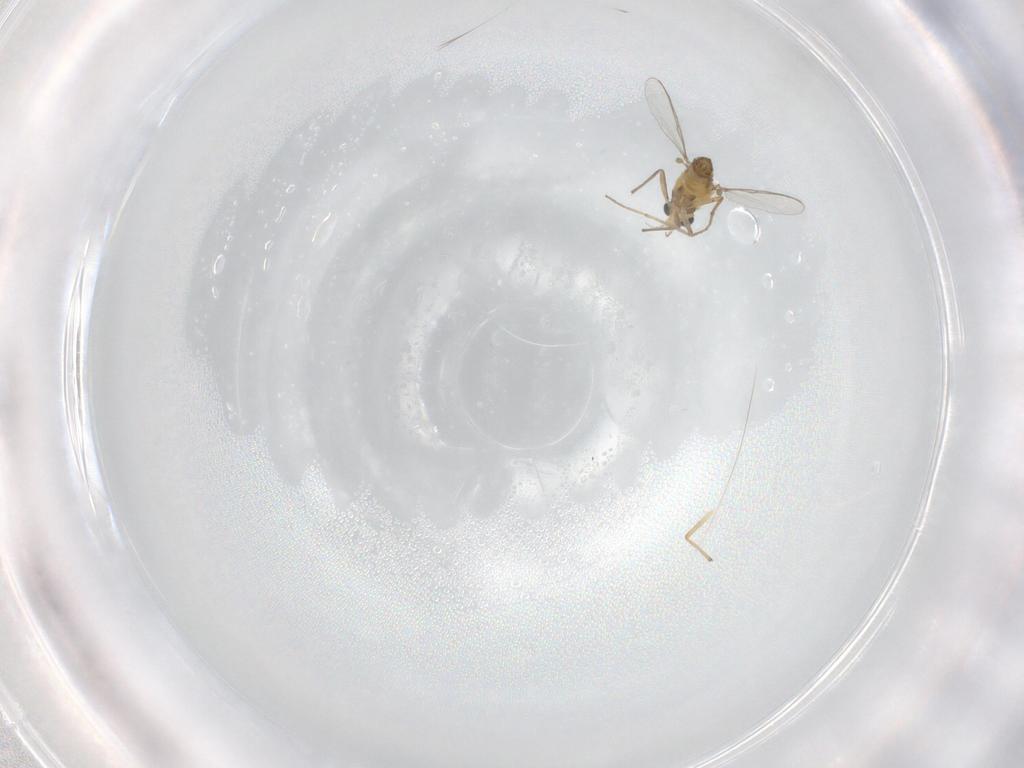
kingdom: Animalia
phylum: Arthropoda
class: Insecta
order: Diptera
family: Chironomidae
